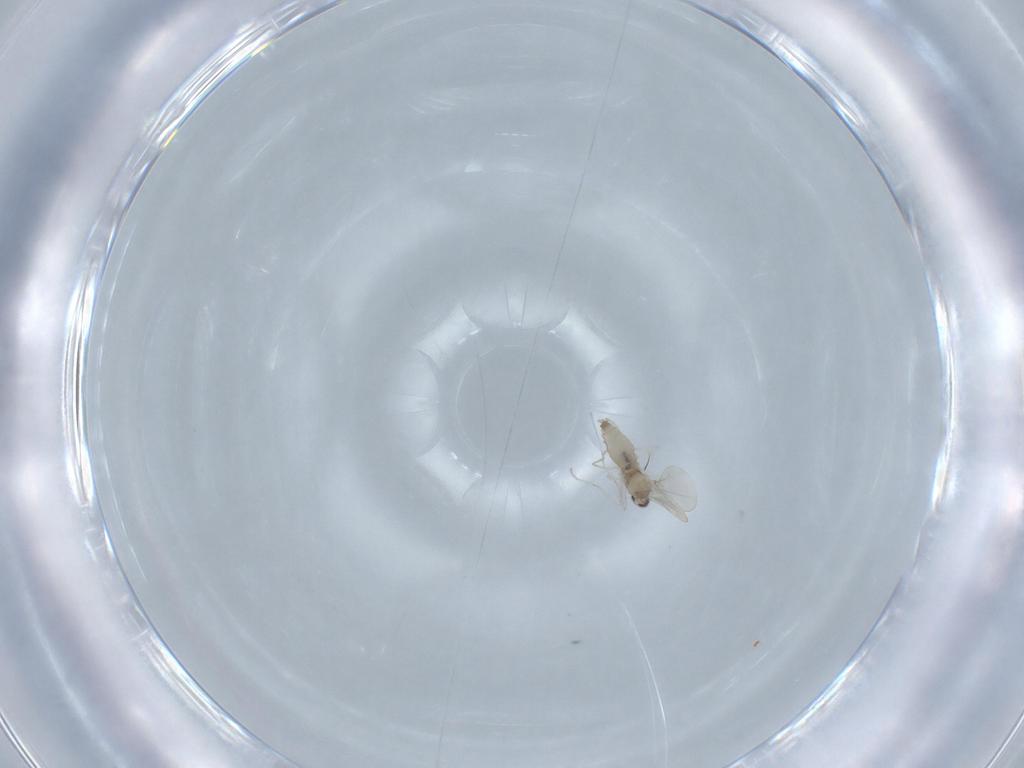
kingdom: Animalia
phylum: Arthropoda
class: Insecta
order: Diptera
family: Cecidomyiidae
